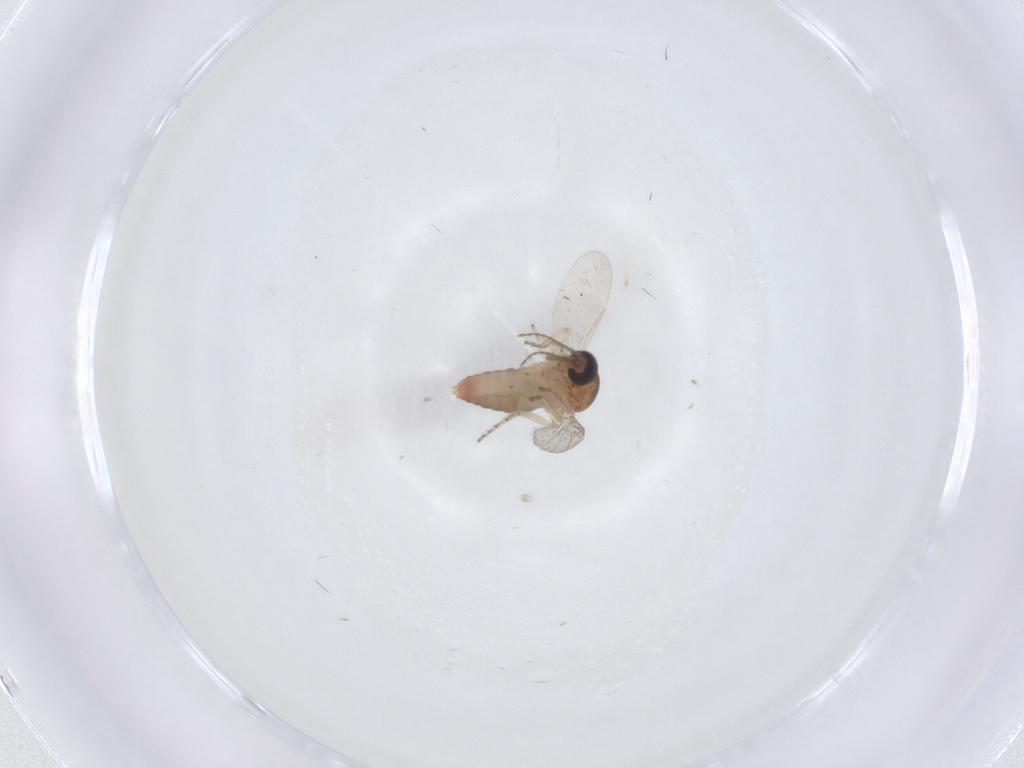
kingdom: Animalia
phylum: Arthropoda
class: Insecta
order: Diptera
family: Ceratopogonidae
